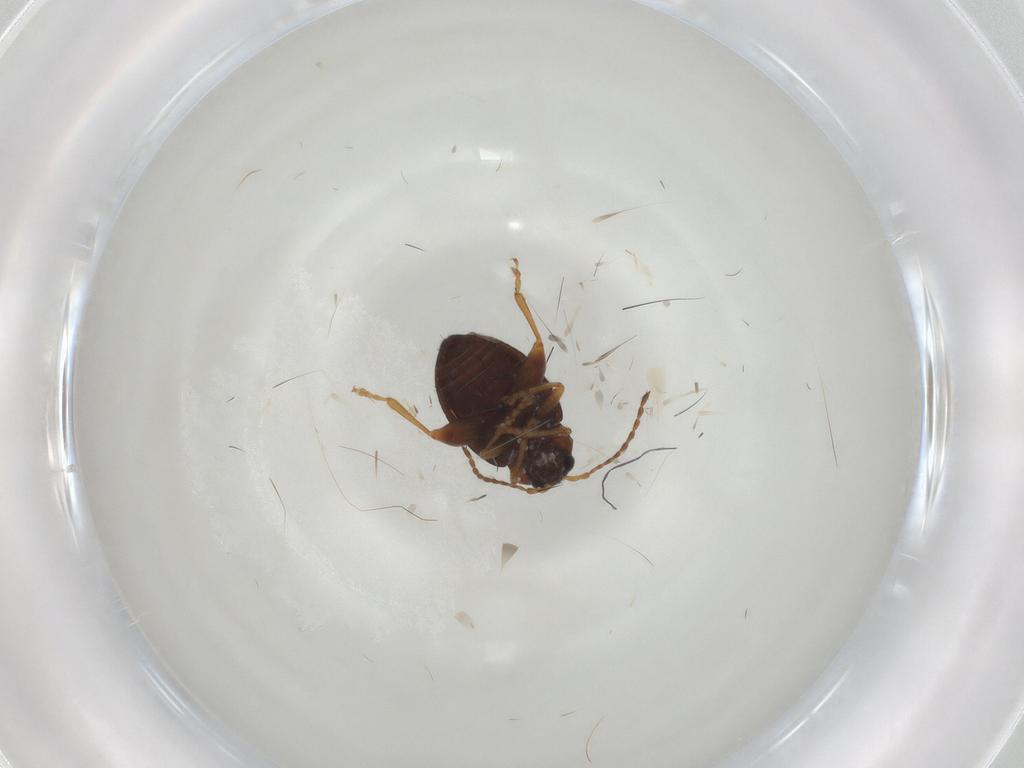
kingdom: Animalia
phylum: Arthropoda
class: Insecta
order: Coleoptera
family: Chrysomelidae
